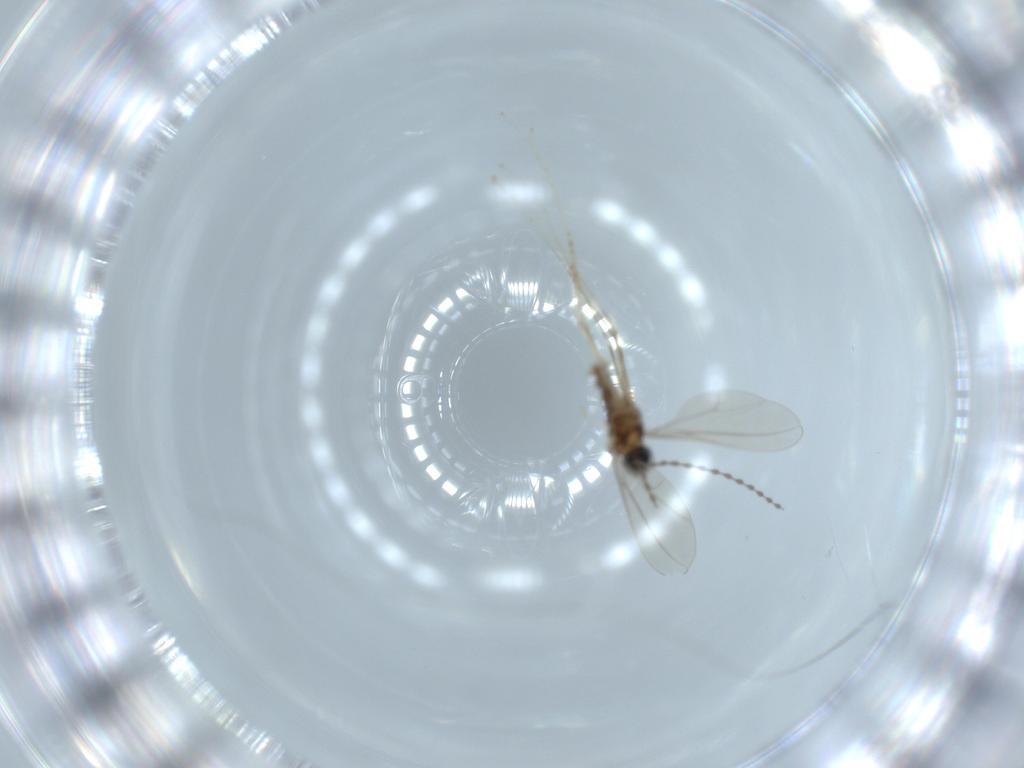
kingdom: Animalia
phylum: Arthropoda
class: Insecta
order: Diptera
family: Cecidomyiidae
